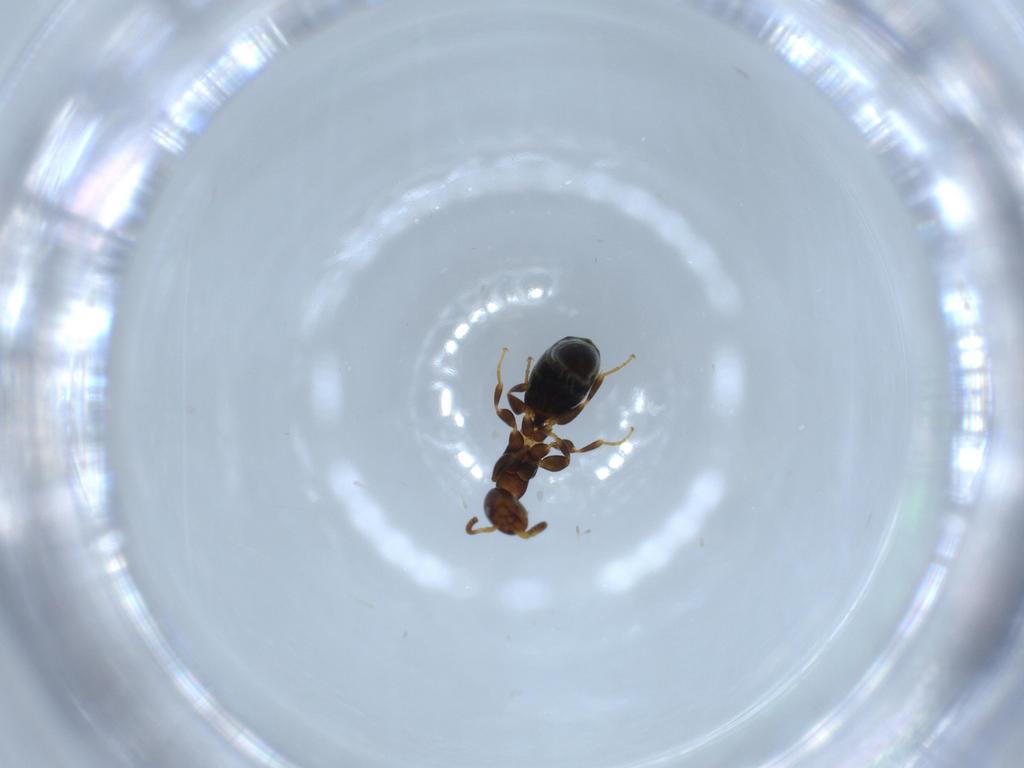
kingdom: Animalia
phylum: Arthropoda
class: Insecta
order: Hymenoptera
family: Bethylidae
